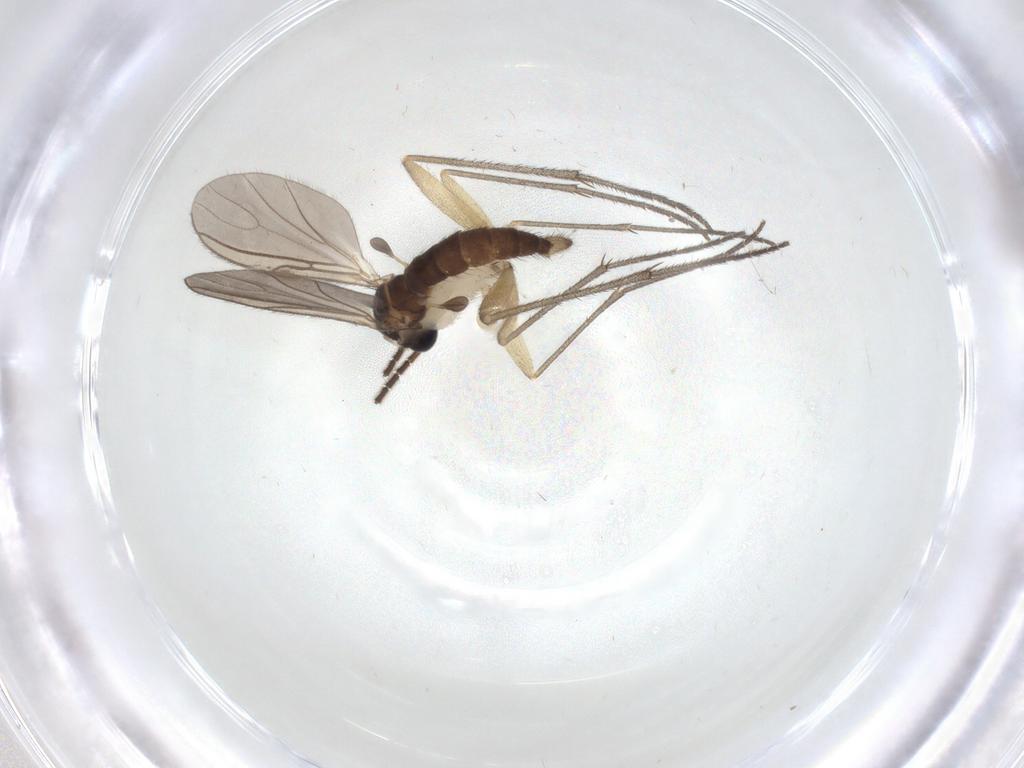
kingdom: Animalia
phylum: Arthropoda
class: Insecta
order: Diptera
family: Sciaridae
